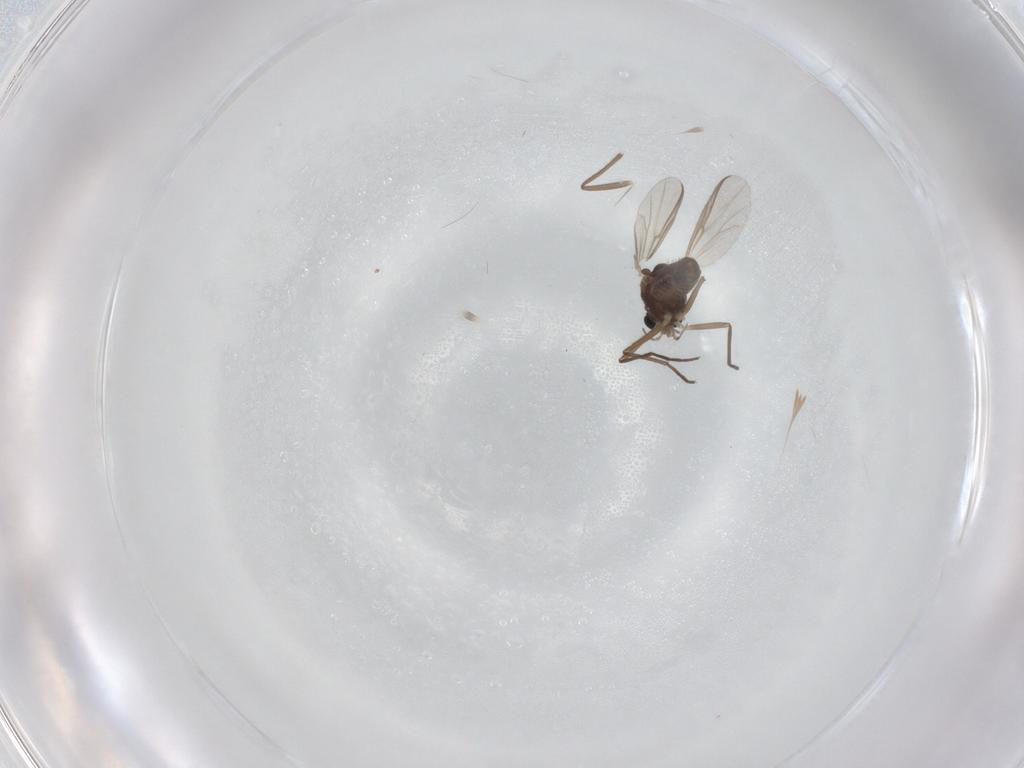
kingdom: Animalia
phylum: Arthropoda
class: Insecta
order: Diptera
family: Chironomidae
